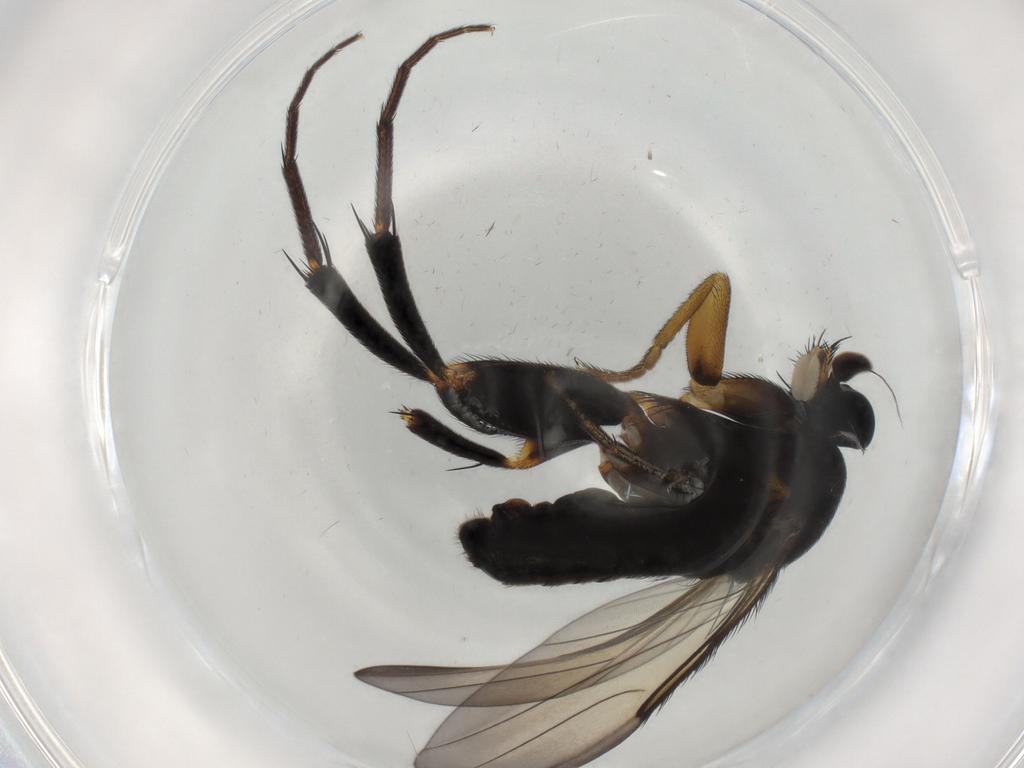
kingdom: Animalia
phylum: Arthropoda
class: Insecta
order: Diptera
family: Phoridae
